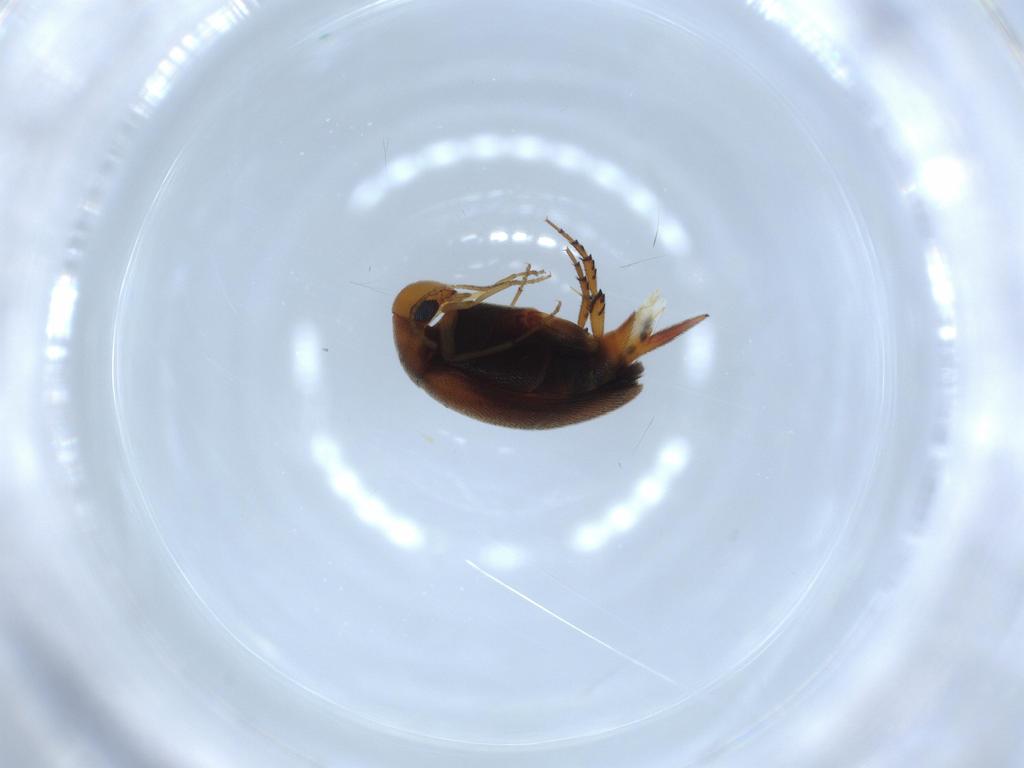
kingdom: Animalia
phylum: Arthropoda
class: Insecta
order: Coleoptera
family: Mordellidae
